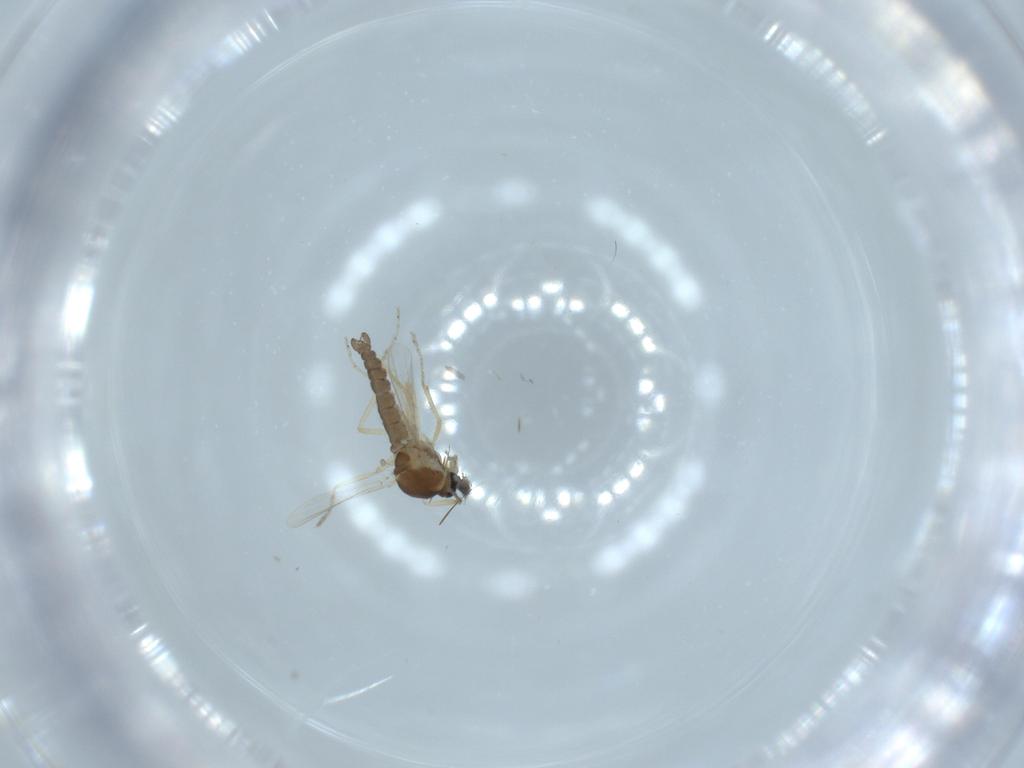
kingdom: Animalia
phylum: Arthropoda
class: Insecta
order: Diptera
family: Ceratopogonidae
